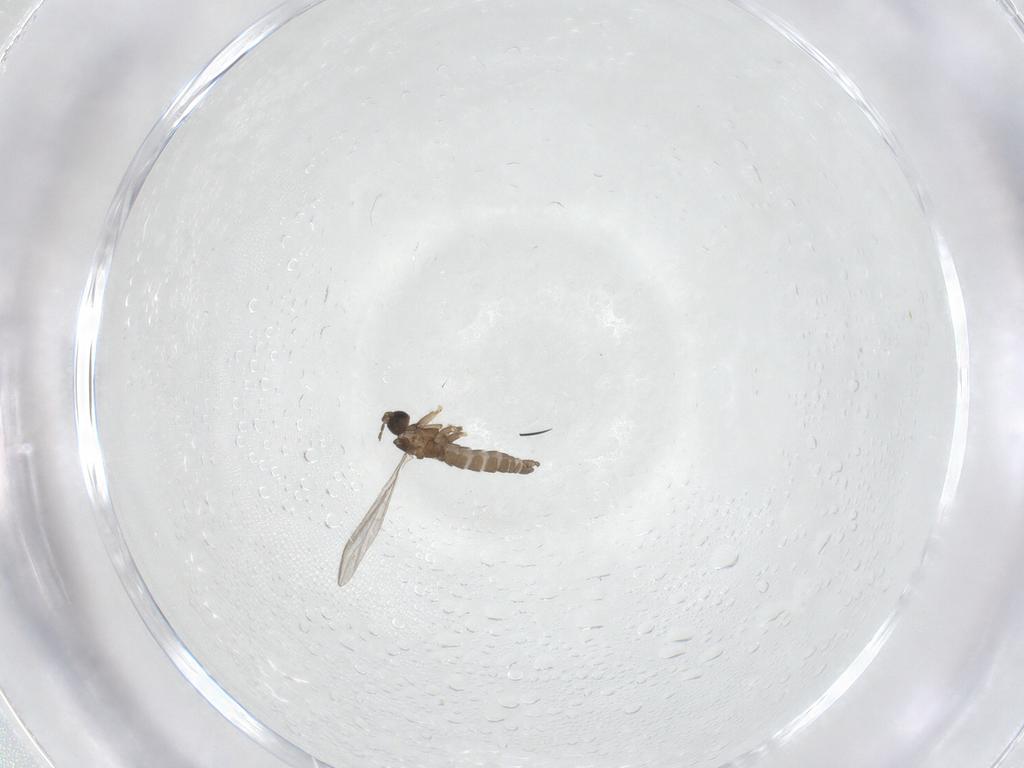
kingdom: Animalia
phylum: Arthropoda
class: Insecta
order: Diptera
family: Sciaridae
